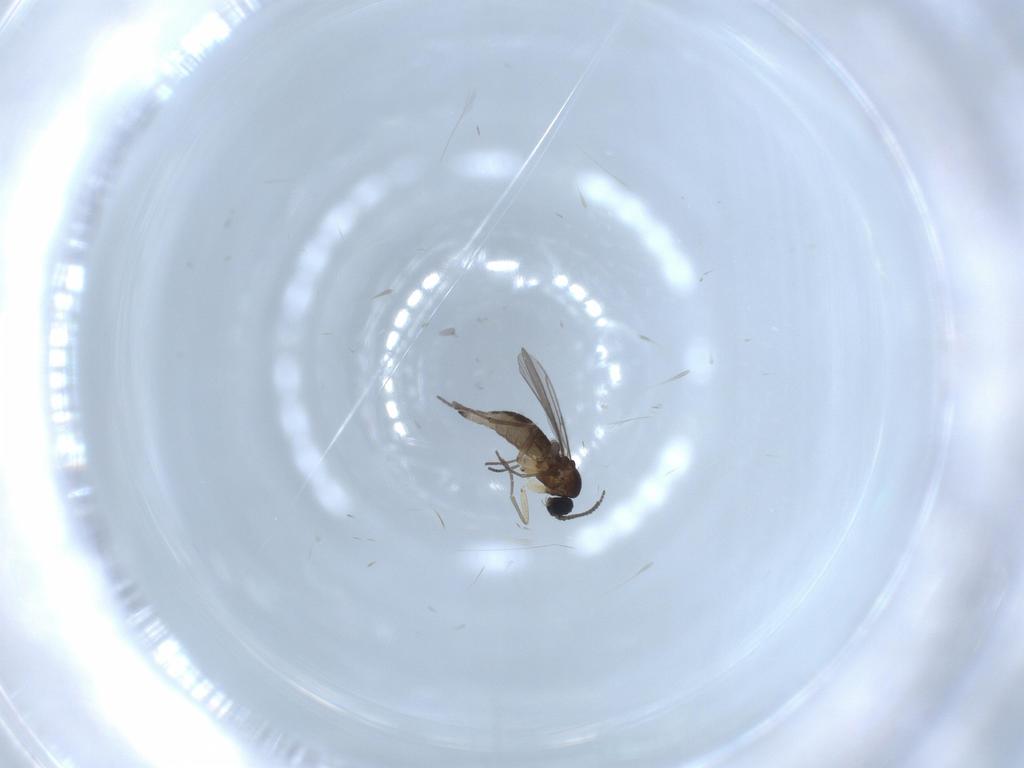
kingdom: Animalia
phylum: Arthropoda
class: Insecta
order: Diptera
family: Sciaridae
